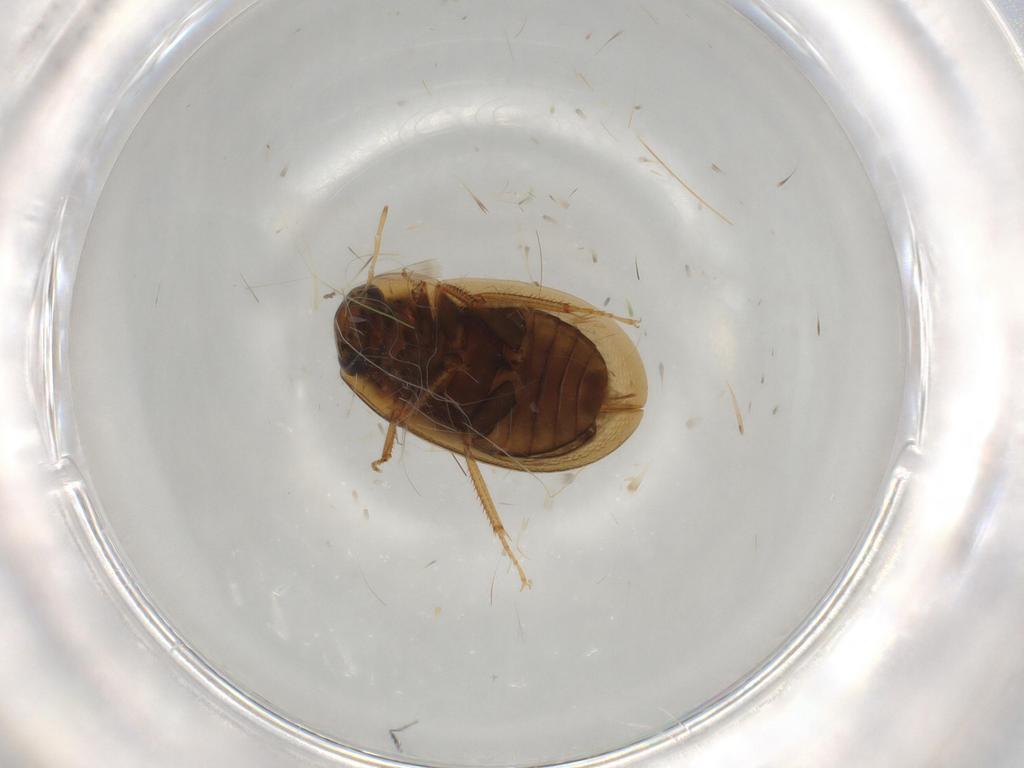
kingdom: Animalia
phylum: Arthropoda
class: Insecta
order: Coleoptera
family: Hydrophilidae
